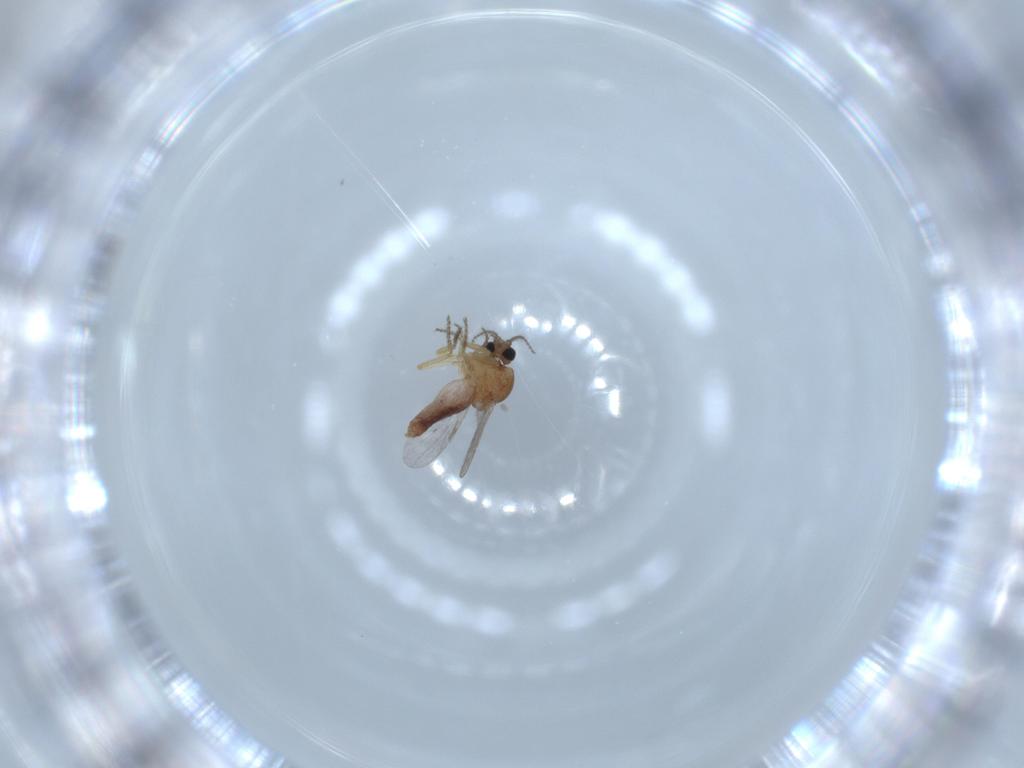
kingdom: Animalia
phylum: Arthropoda
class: Insecta
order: Diptera
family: Ceratopogonidae
